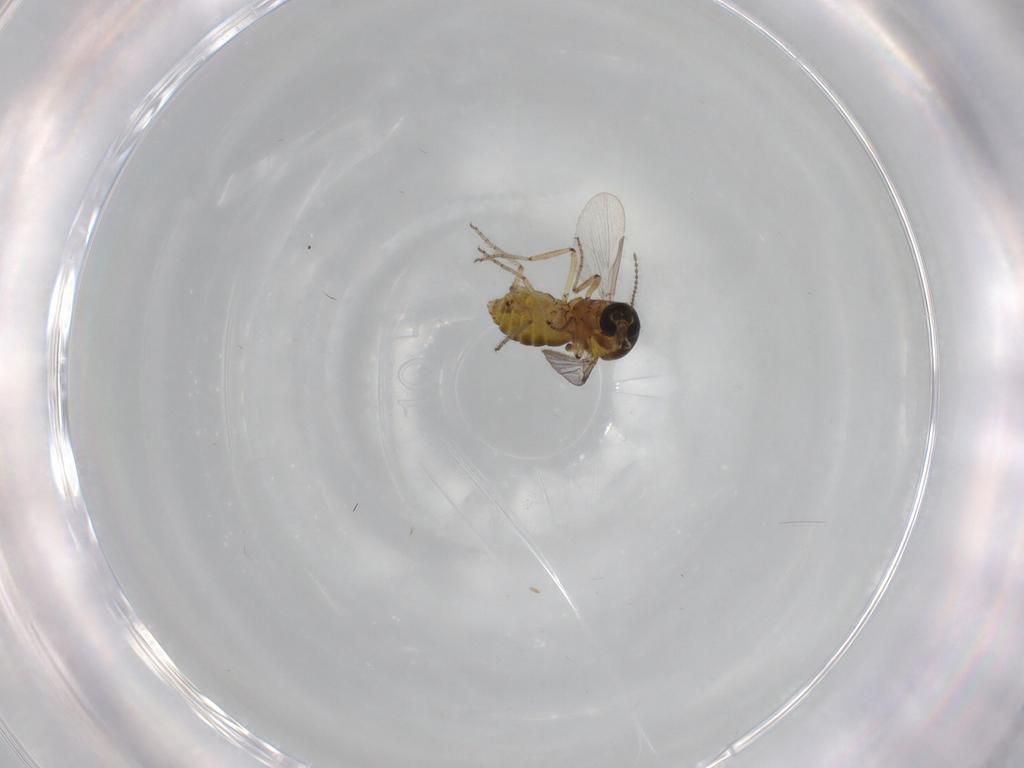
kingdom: Animalia
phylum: Arthropoda
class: Insecta
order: Diptera
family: Ceratopogonidae
